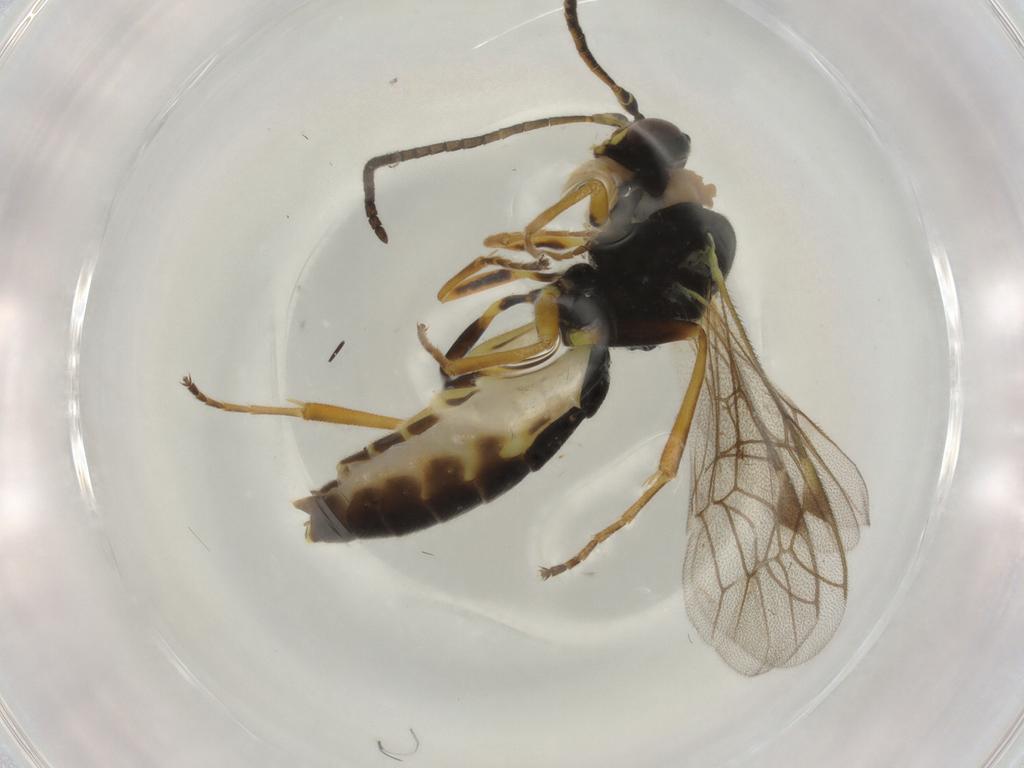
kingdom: Animalia
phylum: Arthropoda
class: Insecta
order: Hymenoptera
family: Ichneumonidae
